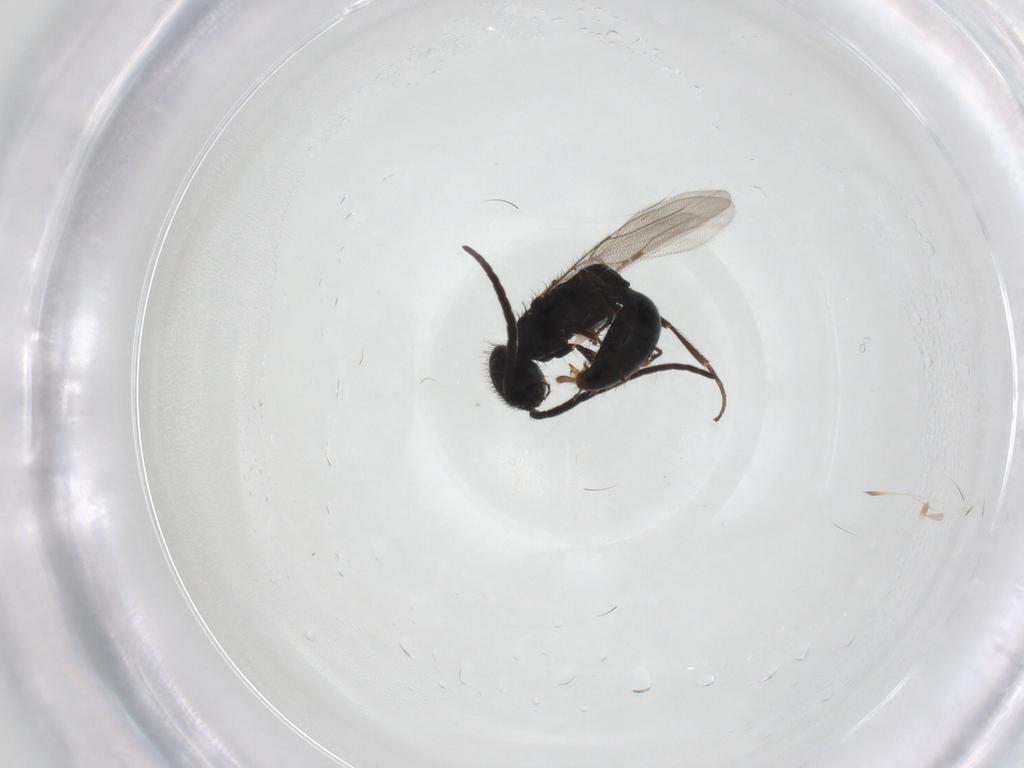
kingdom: Animalia
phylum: Arthropoda
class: Insecta
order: Hymenoptera
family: Bethylidae
